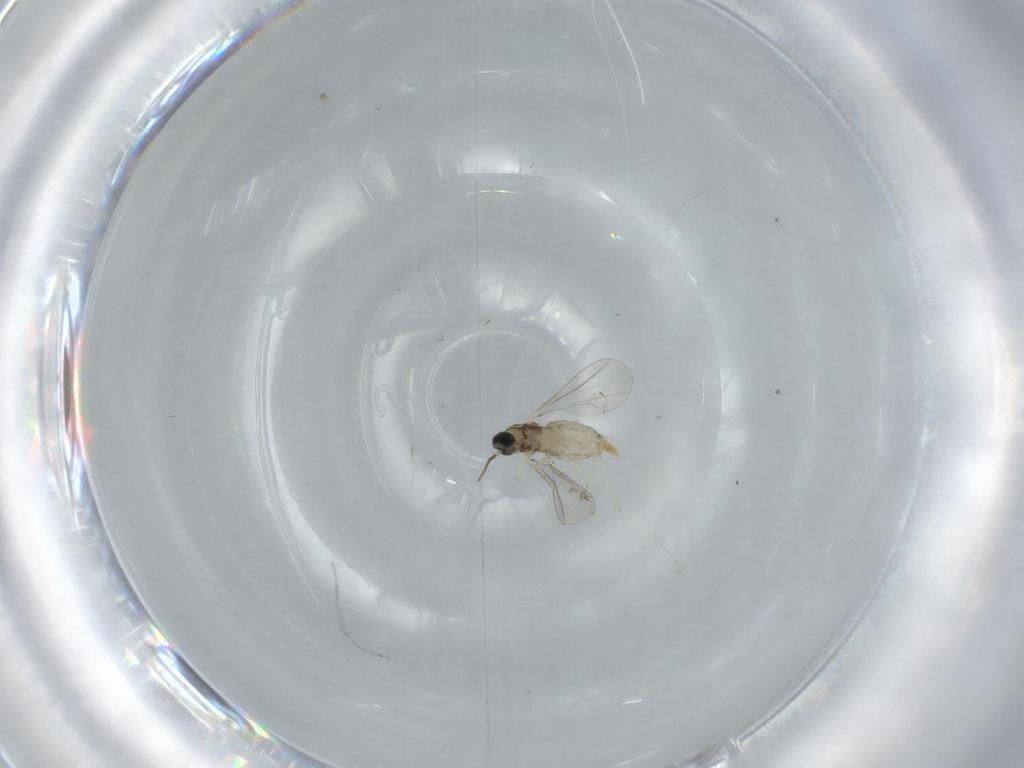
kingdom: Animalia
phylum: Arthropoda
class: Insecta
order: Diptera
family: Cecidomyiidae
